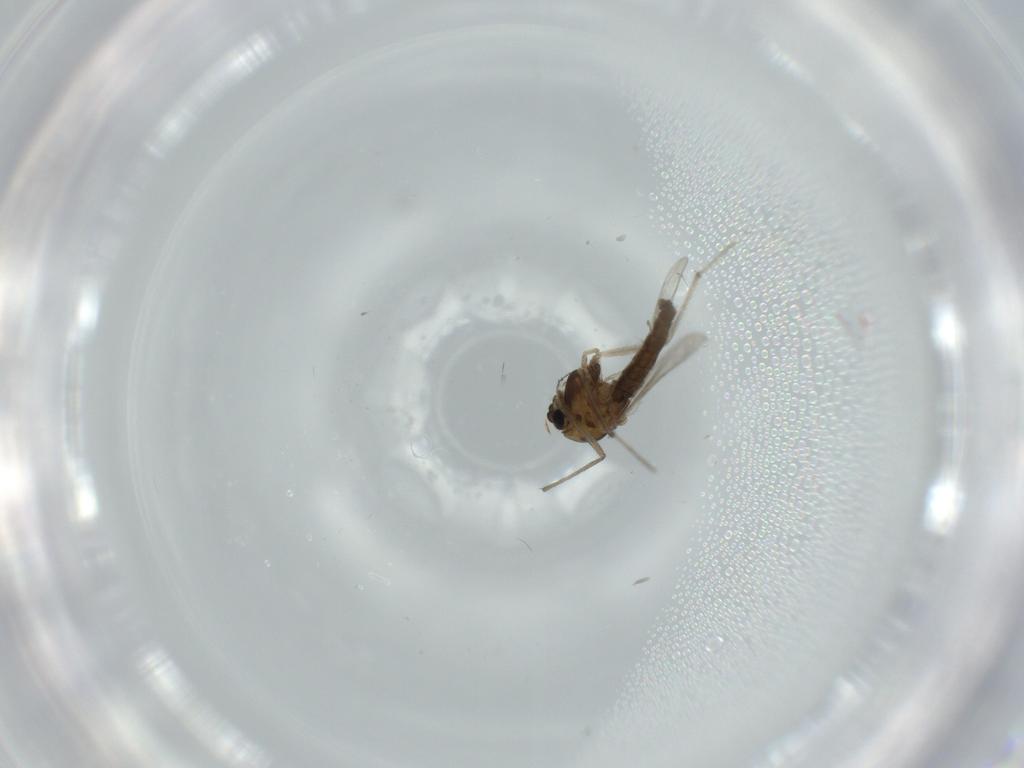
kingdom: Animalia
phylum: Arthropoda
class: Insecta
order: Diptera
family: Chironomidae
